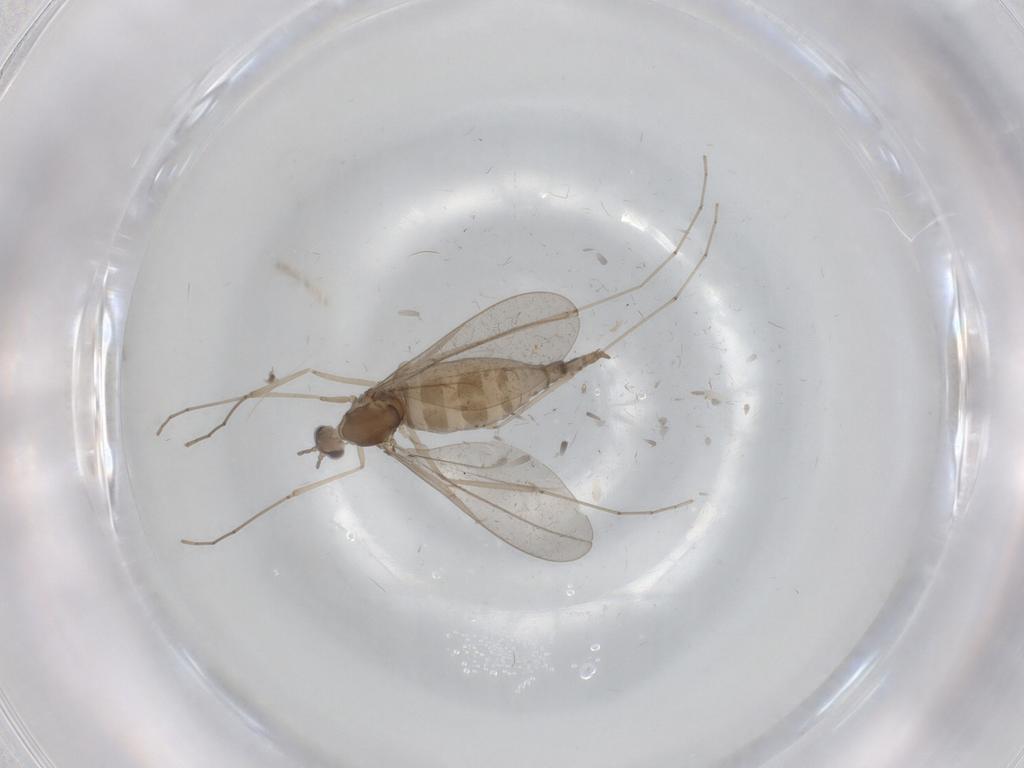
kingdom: Animalia
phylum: Arthropoda
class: Insecta
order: Diptera
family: Cecidomyiidae
